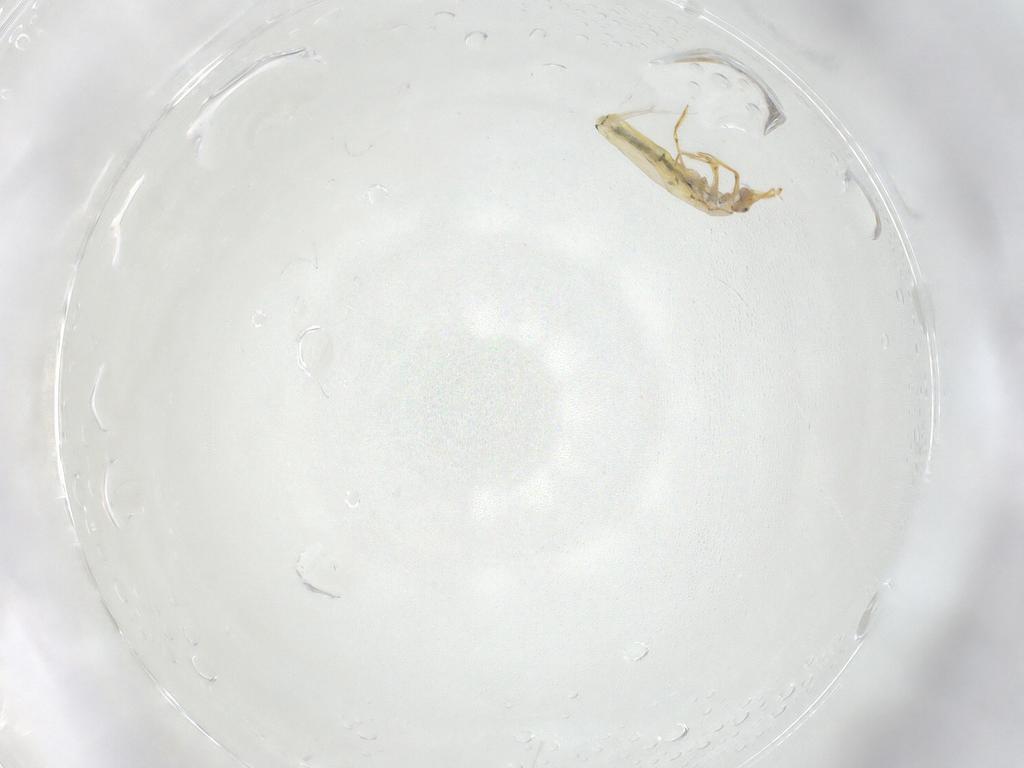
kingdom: Animalia
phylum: Arthropoda
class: Collembola
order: Entomobryomorpha
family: Entomobryidae
